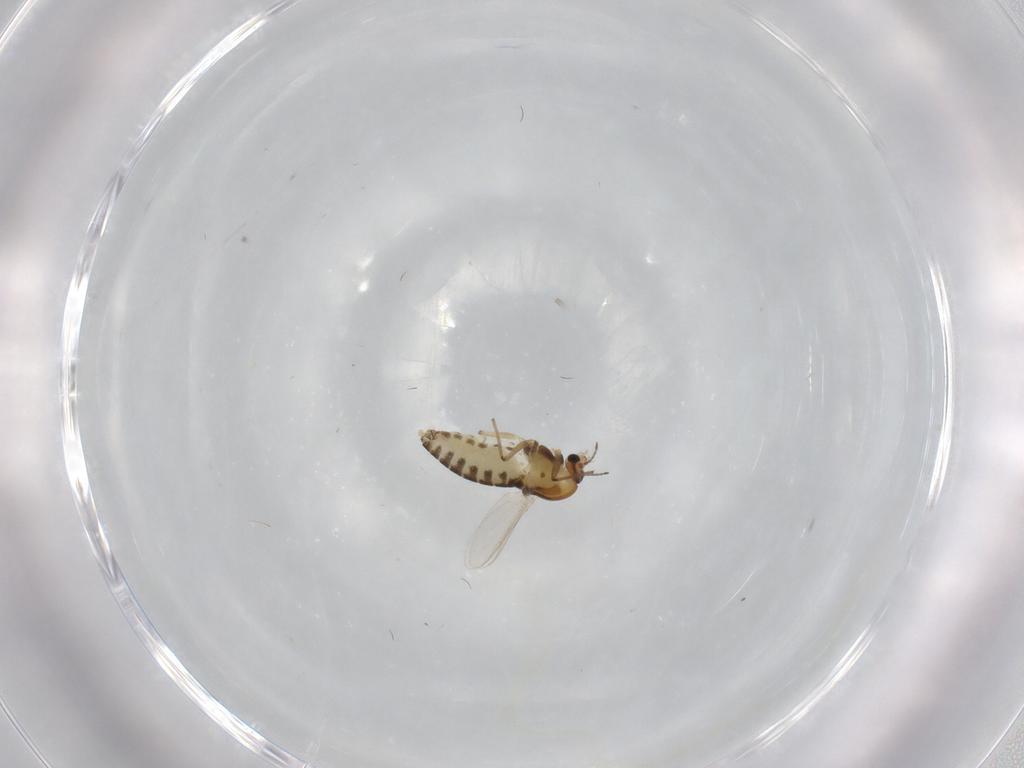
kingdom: Animalia
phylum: Arthropoda
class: Insecta
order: Diptera
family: Chironomidae
